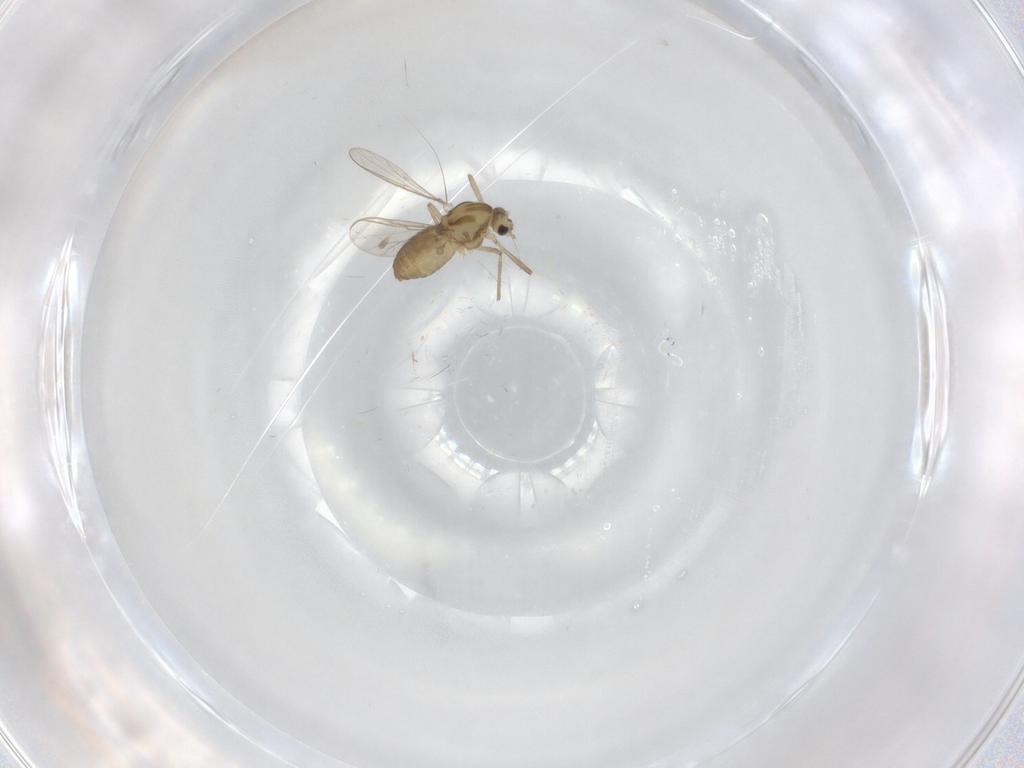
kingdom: Animalia
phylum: Arthropoda
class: Insecta
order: Diptera
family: Chironomidae
